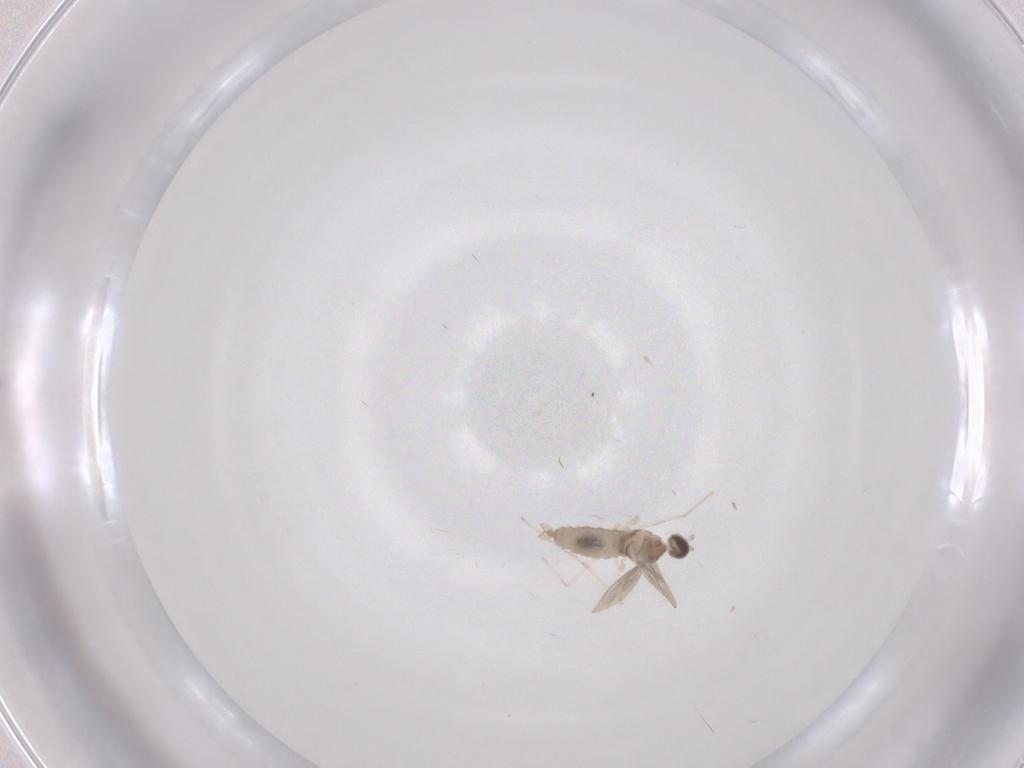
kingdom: Animalia
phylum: Arthropoda
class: Insecta
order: Diptera
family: Cecidomyiidae
